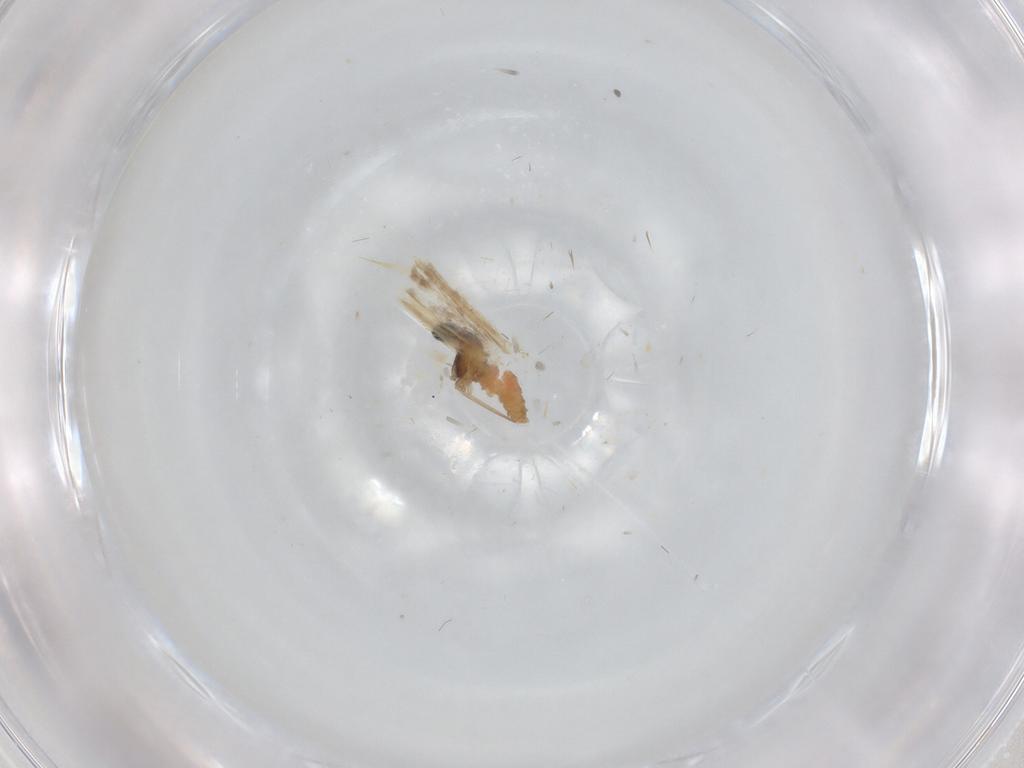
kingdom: Animalia
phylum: Arthropoda
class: Insecta
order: Diptera
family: Cecidomyiidae
